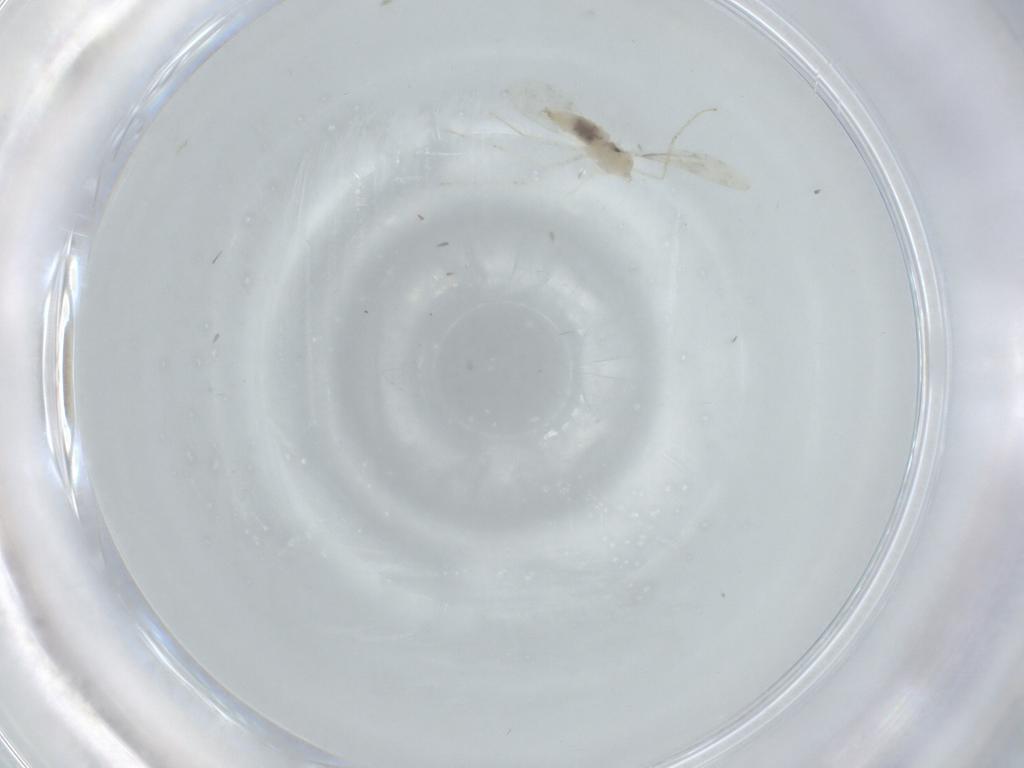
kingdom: Animalia
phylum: Arthropoda
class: Insecta
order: Diptera
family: Cecidomyiidae
